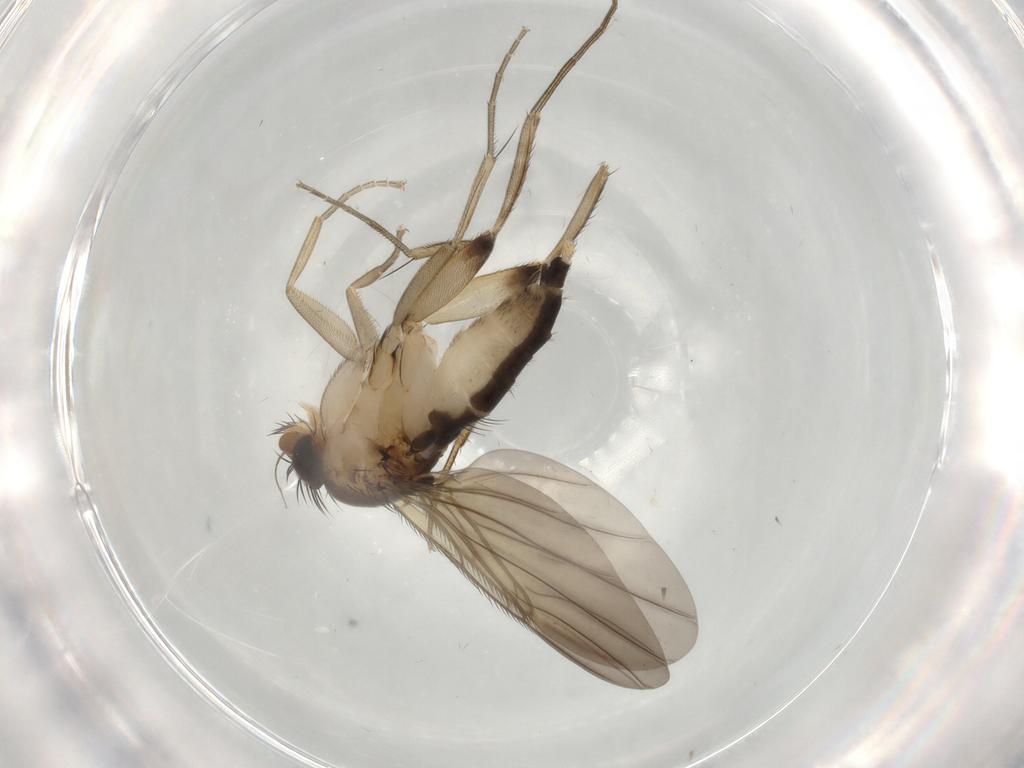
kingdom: Animalia
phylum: Arthropoda
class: Insecta
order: Diptera
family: Phoridae
